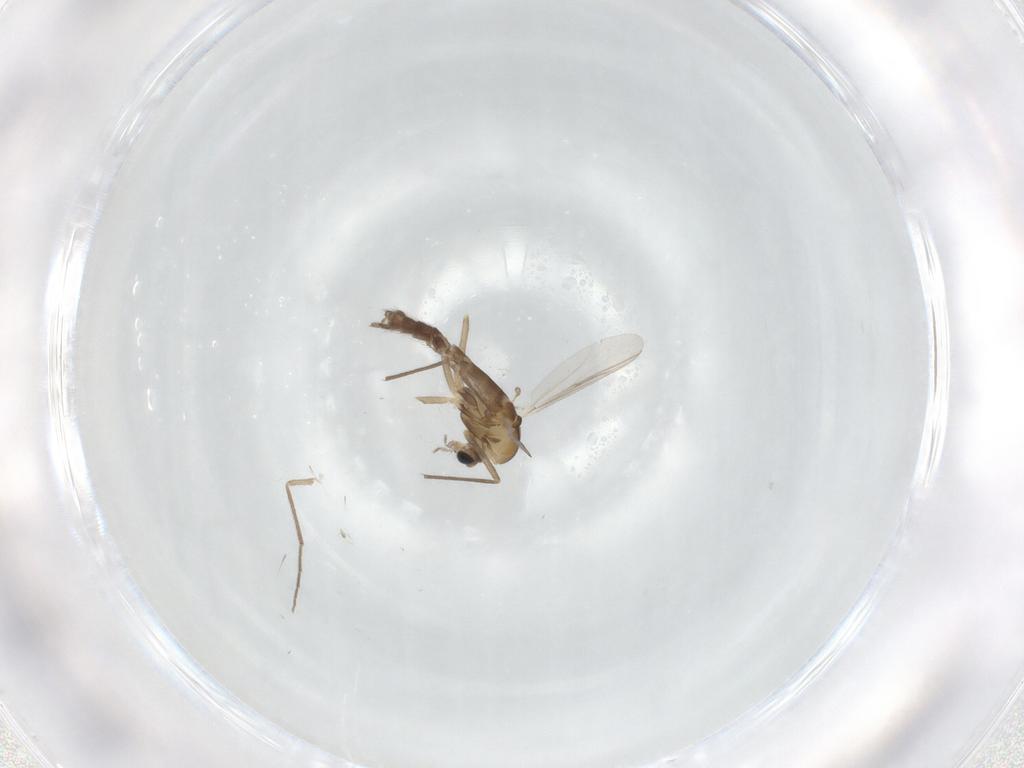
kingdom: Animalia
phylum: Arthropoda
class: Insecta
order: Diptera
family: Chironomidae
